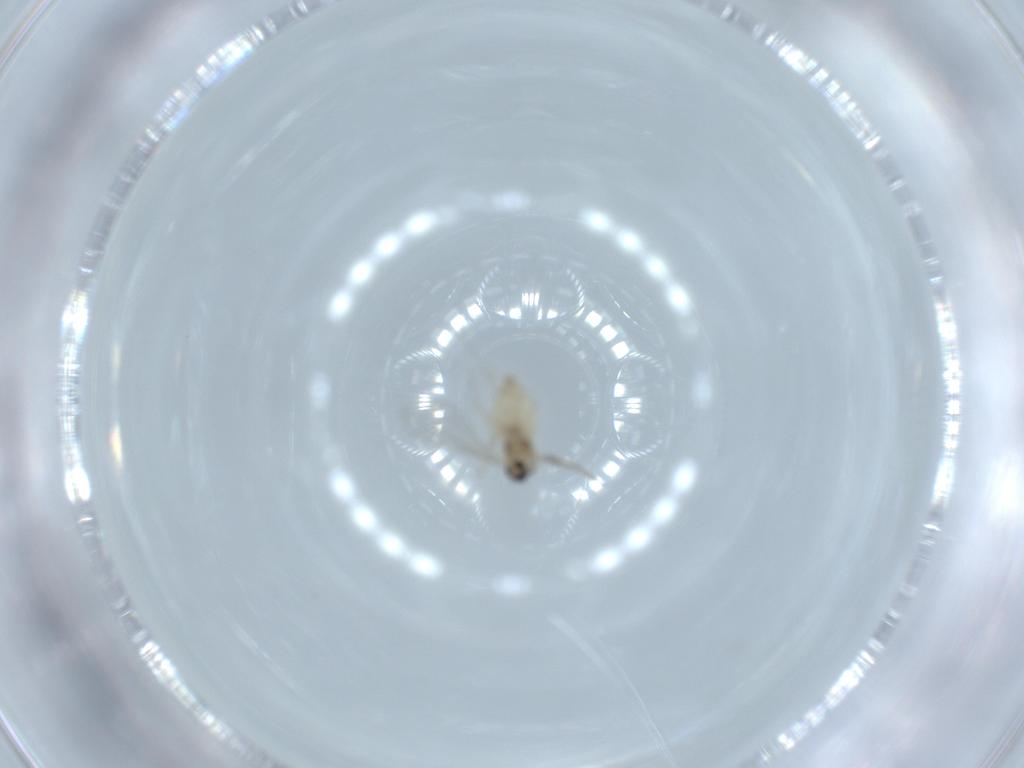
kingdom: Animalia
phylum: Arthropoda
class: Insecta
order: Diptera
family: Cecidomyiidae
